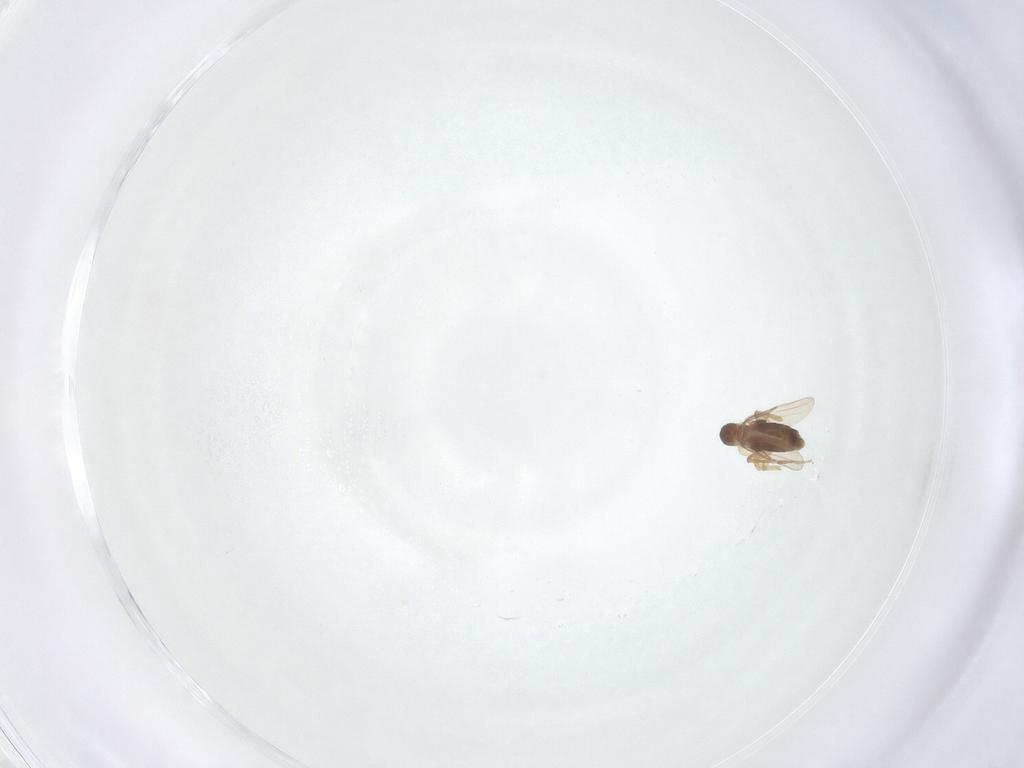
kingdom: Animalia
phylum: Arthropoda
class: Insecta
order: Diptera
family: Phoridae
